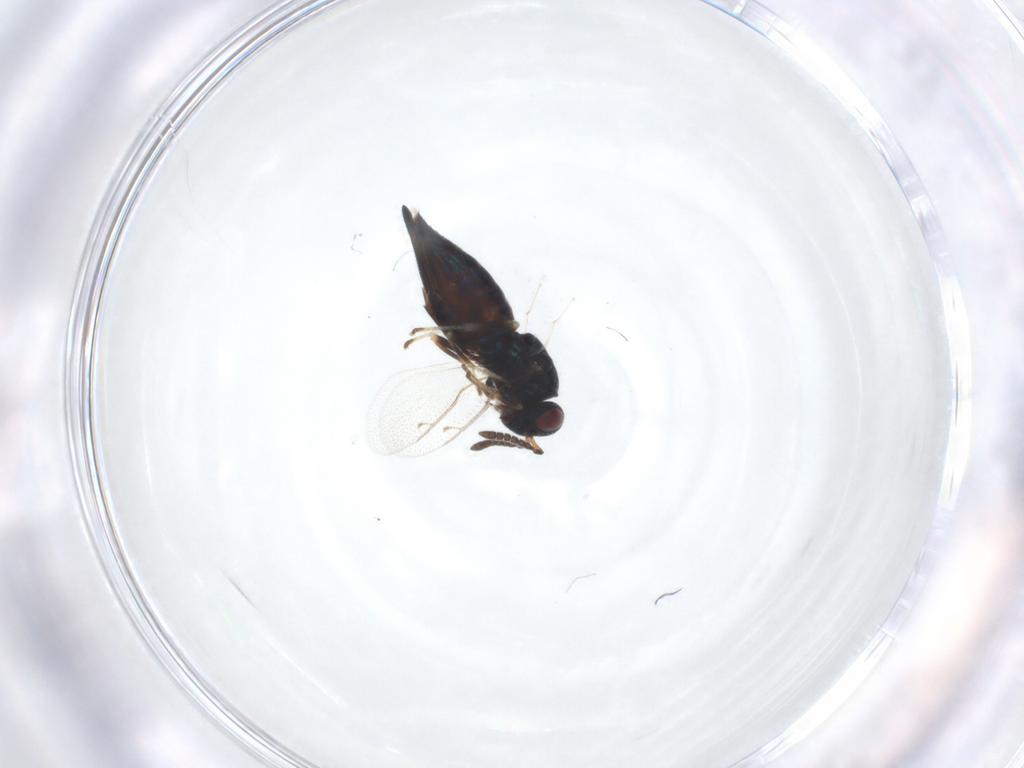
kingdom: Animalia
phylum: Arthropoda
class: Insecta
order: Hymenoptera
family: Pteromalidae
